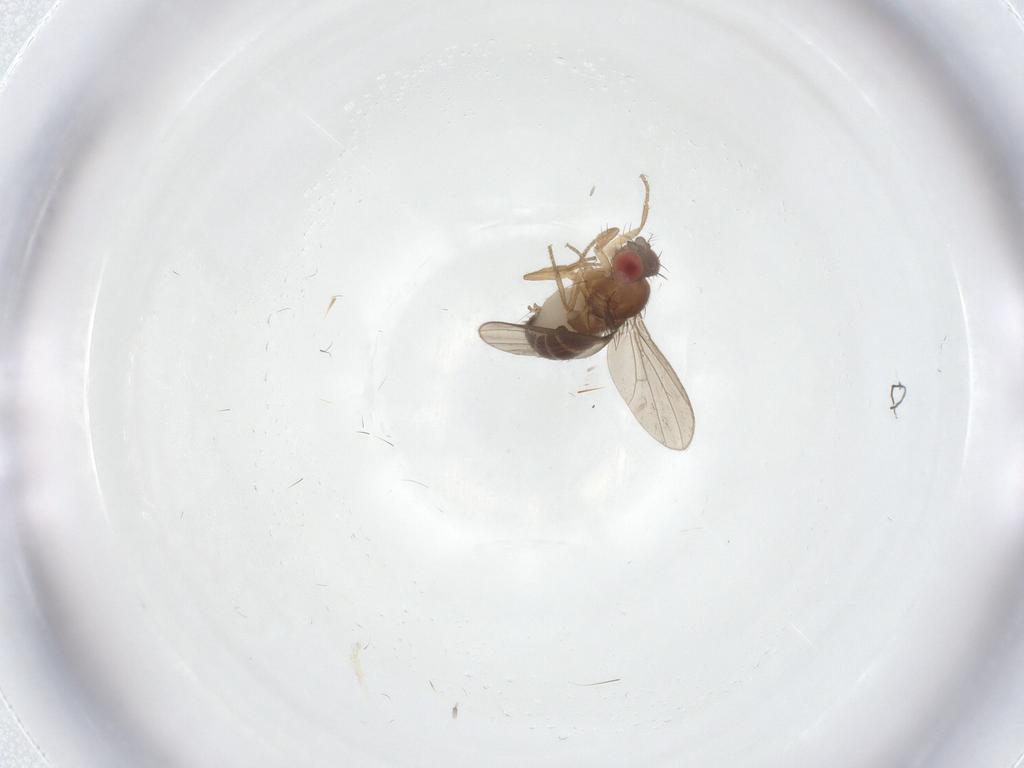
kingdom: Animalia
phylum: Arthropoda
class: Insecta
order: Diptera
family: Drosophilidae
